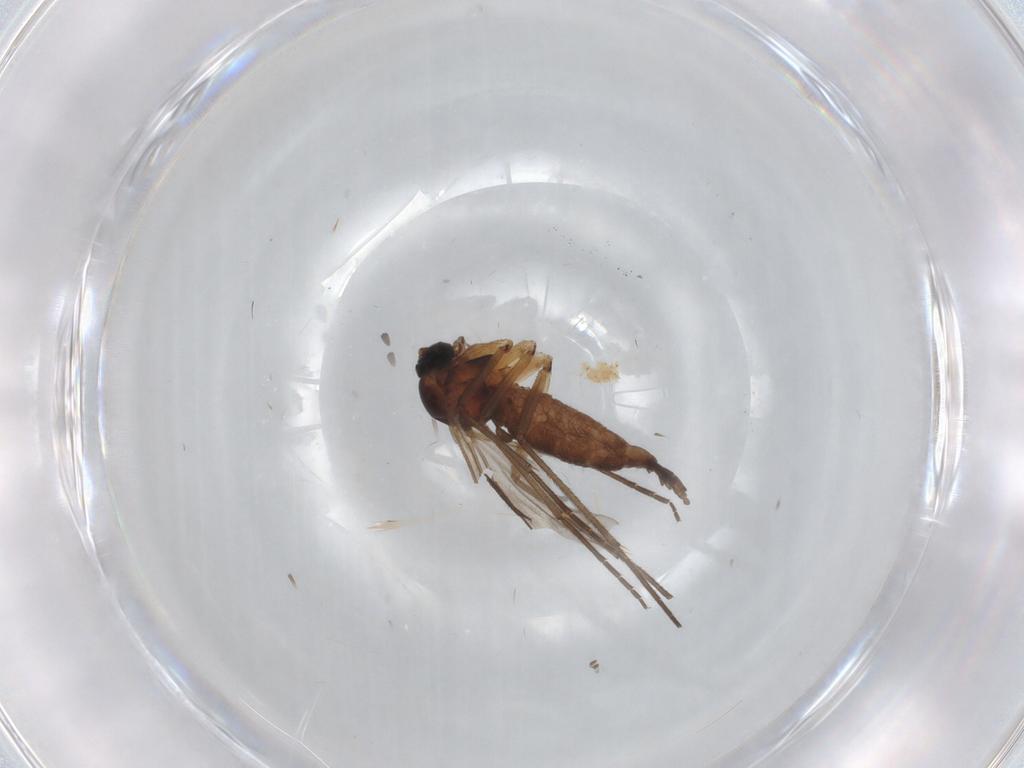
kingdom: Animalia
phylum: Arthropoda
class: Insecta
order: Diptera
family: Sciaridae
